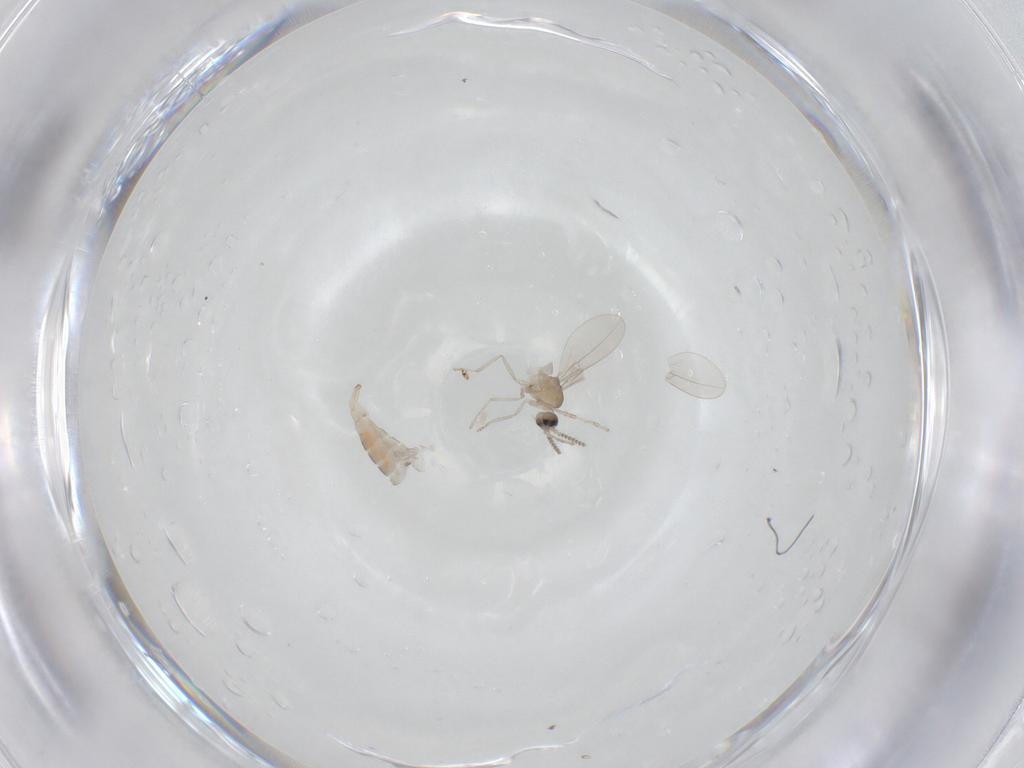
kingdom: Animalia
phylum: Arthropoda
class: Insecta
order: Diptera
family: Cecidomyiidae
